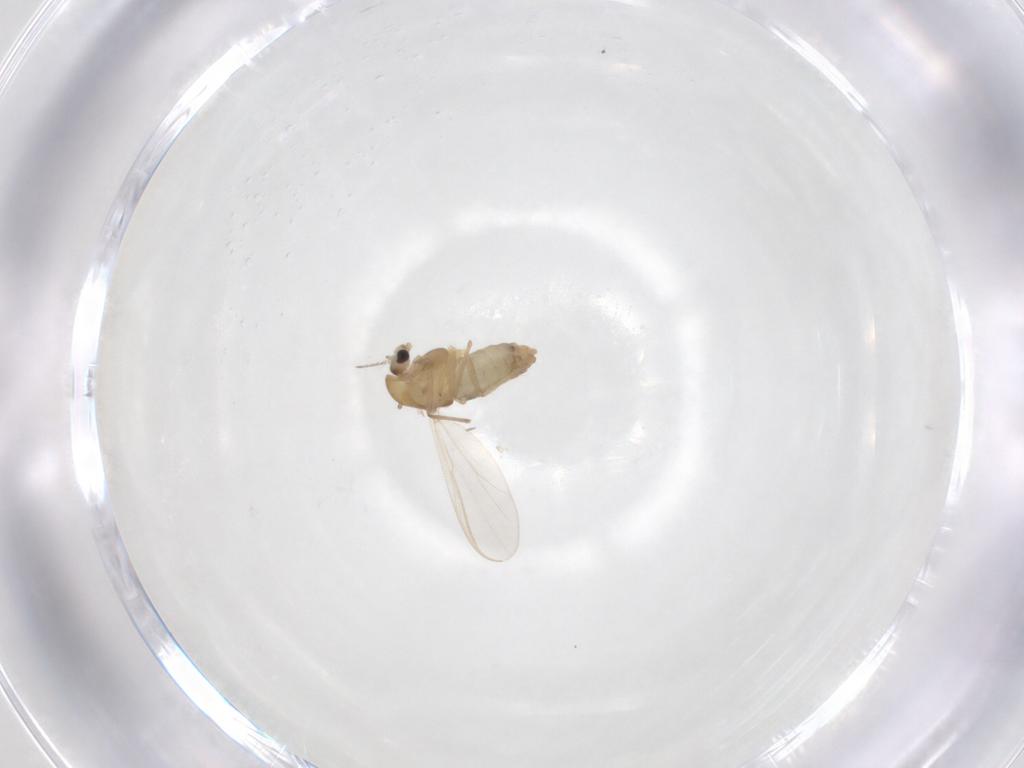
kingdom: Animalia
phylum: Arthropoda
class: Insecta
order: Diptera
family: Chironomidae
